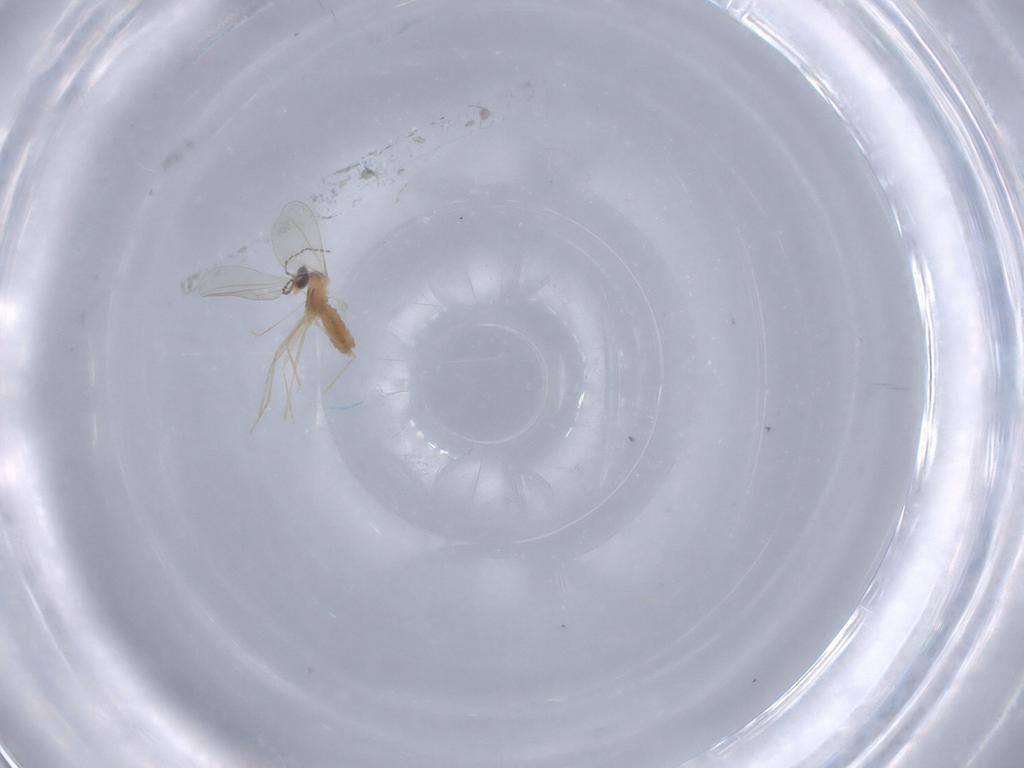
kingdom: Animalia
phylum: Arthropoda
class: Insecta
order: Diptera
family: Cecidomyiidae
